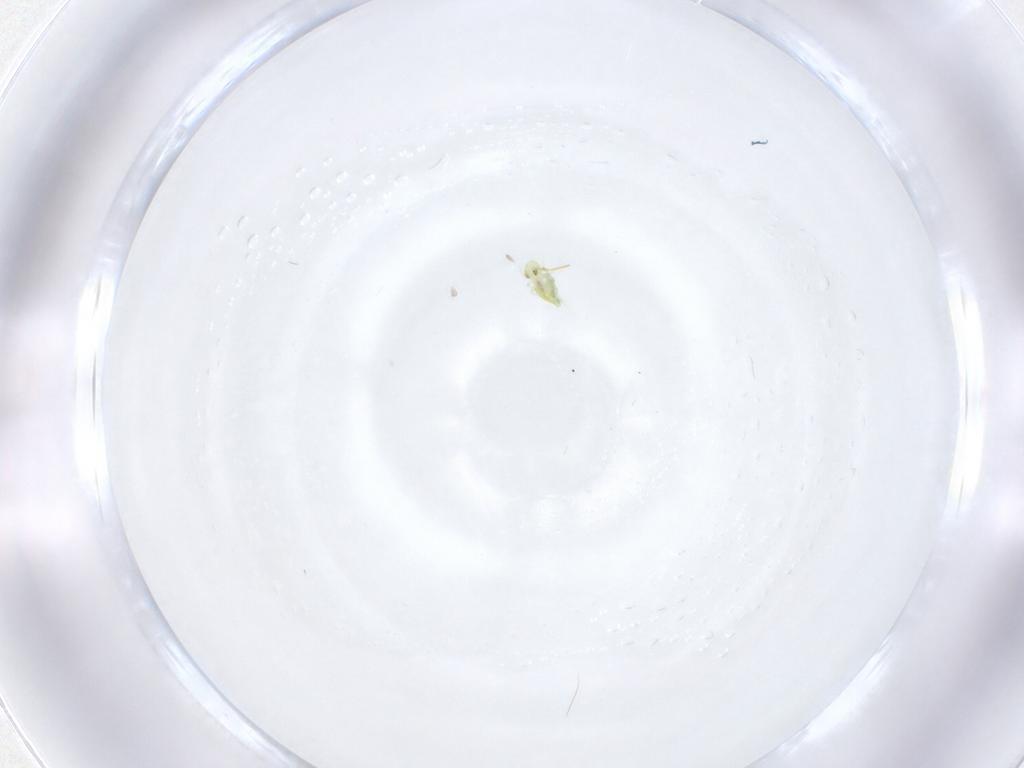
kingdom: Animalia
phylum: Arthropoda
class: Collembola
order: Symphypleona
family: Katiannidae
